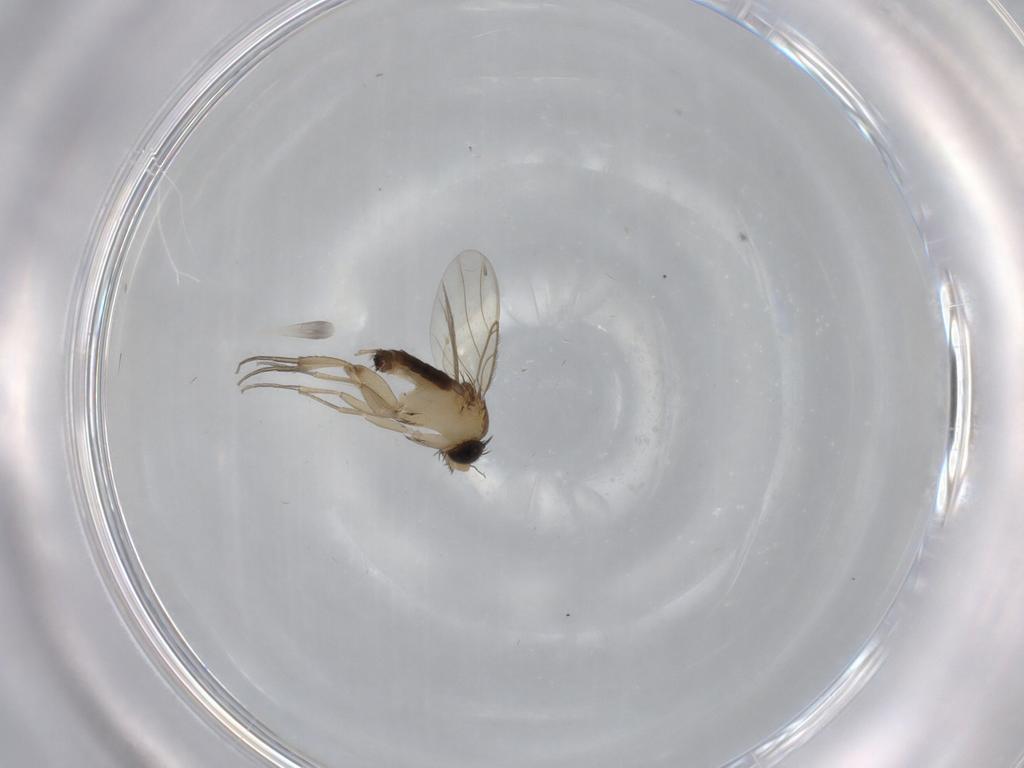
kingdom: Animalia
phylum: Arthropoda
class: Insecta
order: Diptera
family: Phoridae
